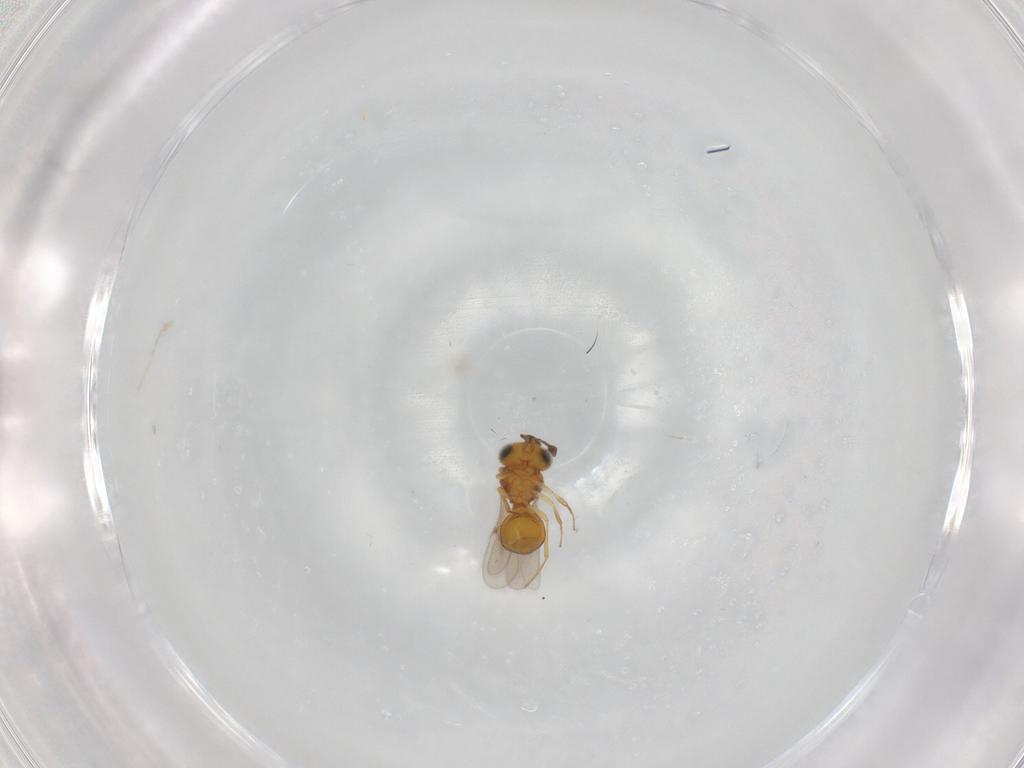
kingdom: Animalia
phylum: Arthropoda
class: Insecta
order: Hymenoptera
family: Scelionidae
